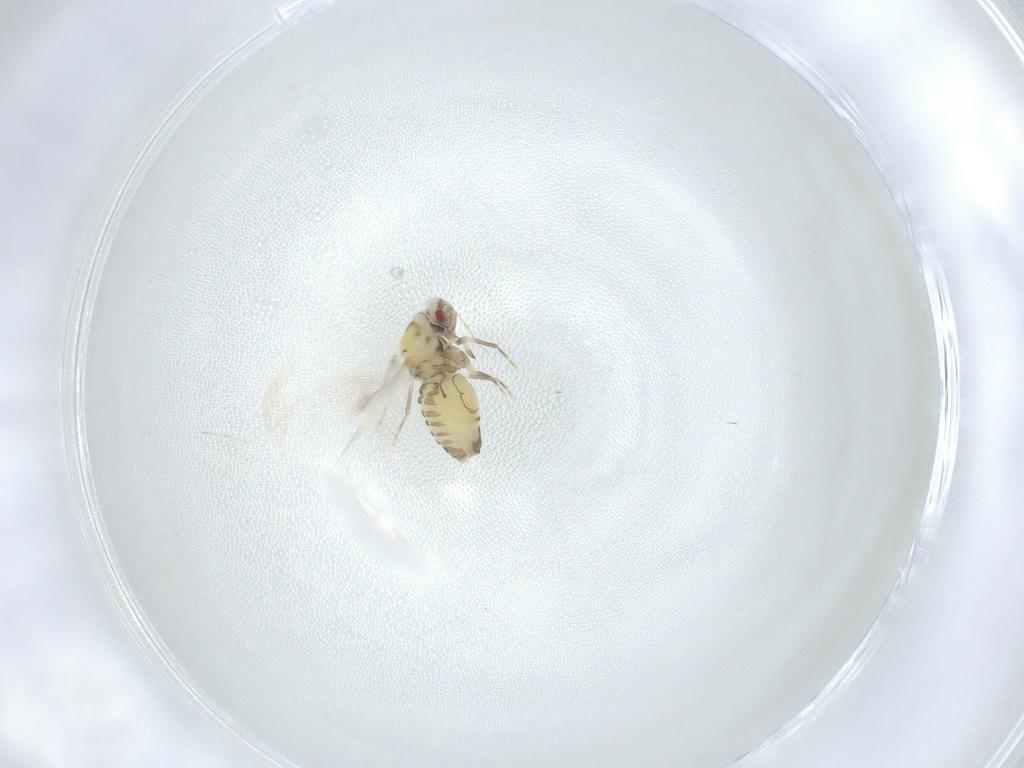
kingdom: Animalia
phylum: Arthropoda
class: Insecta
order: Hemiptera
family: Aleyrodidae
